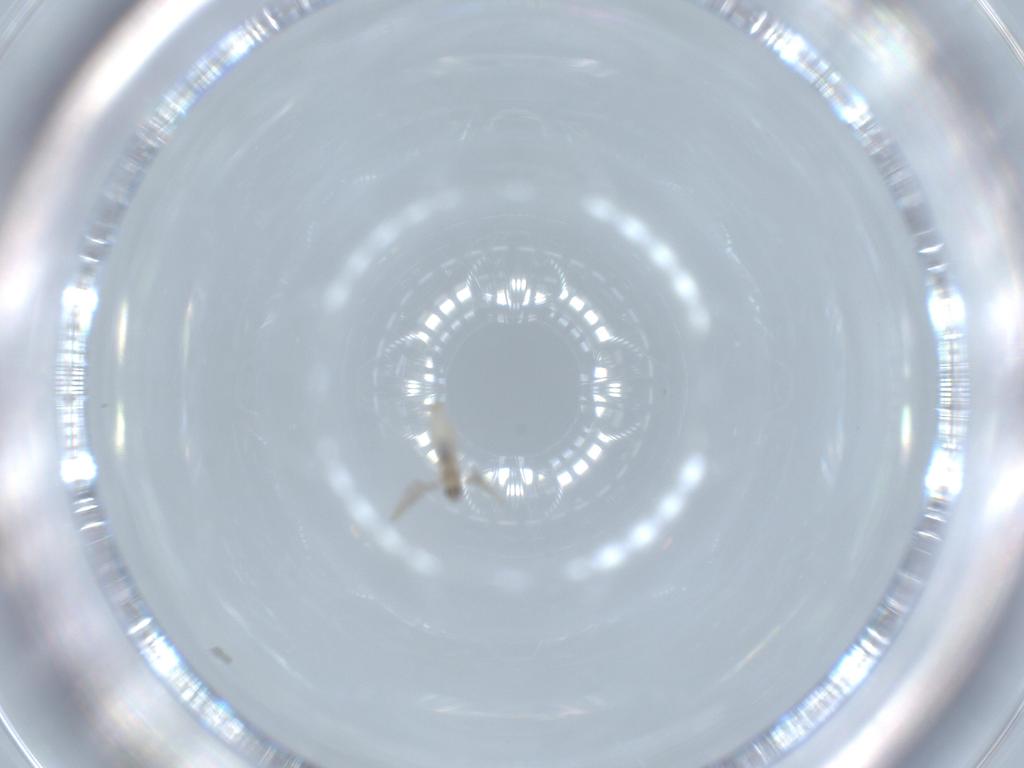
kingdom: Animalia
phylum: Arthropoda
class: Insecta
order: Diptera
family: Cecidomyiidae
